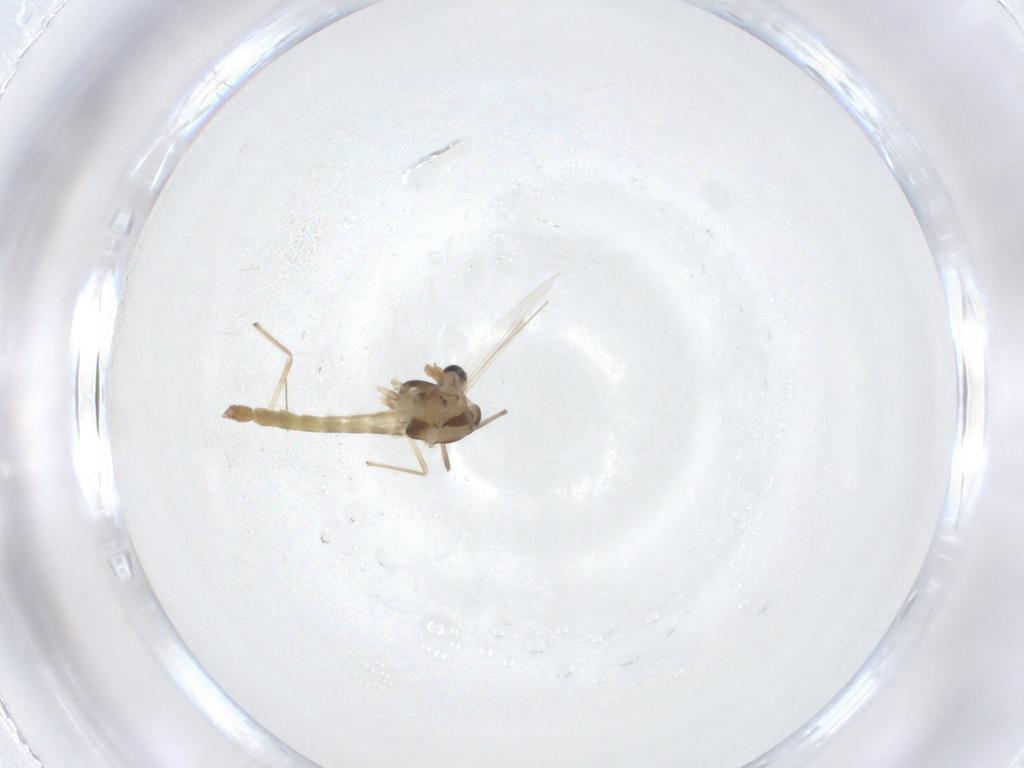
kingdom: Animalia
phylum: Arthropoda
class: Insecta
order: Diptera
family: Chironomidae
